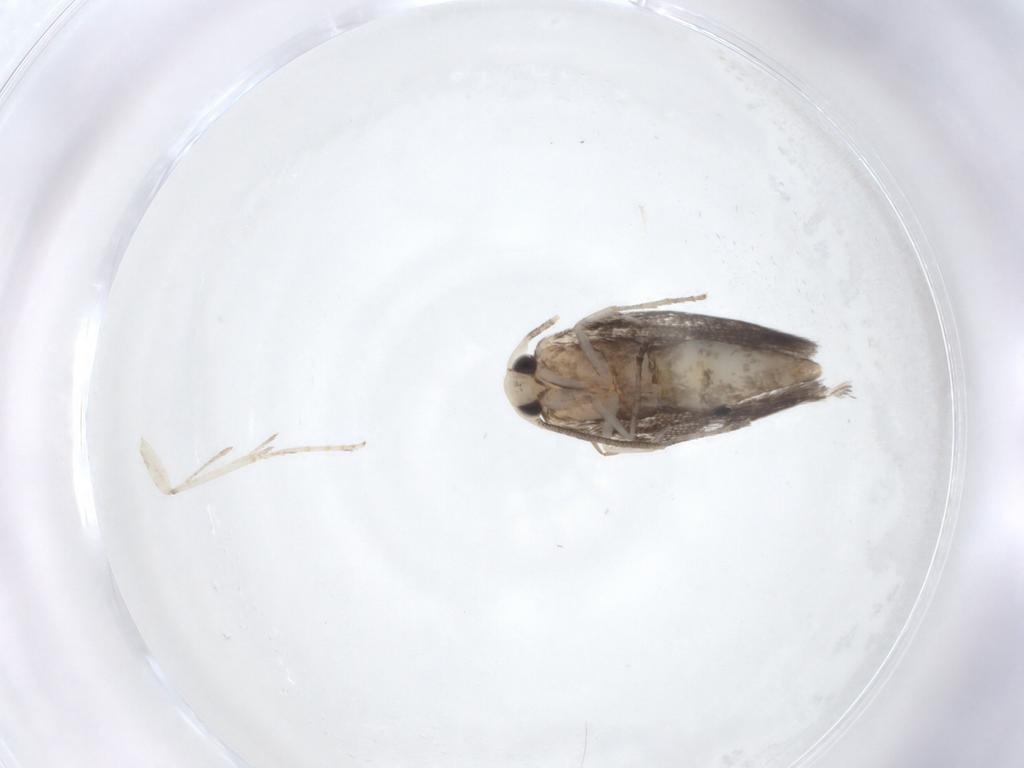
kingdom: Animalia
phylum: Arthropoda
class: Insecta
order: Lepidoptera
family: Lyonetiidae
